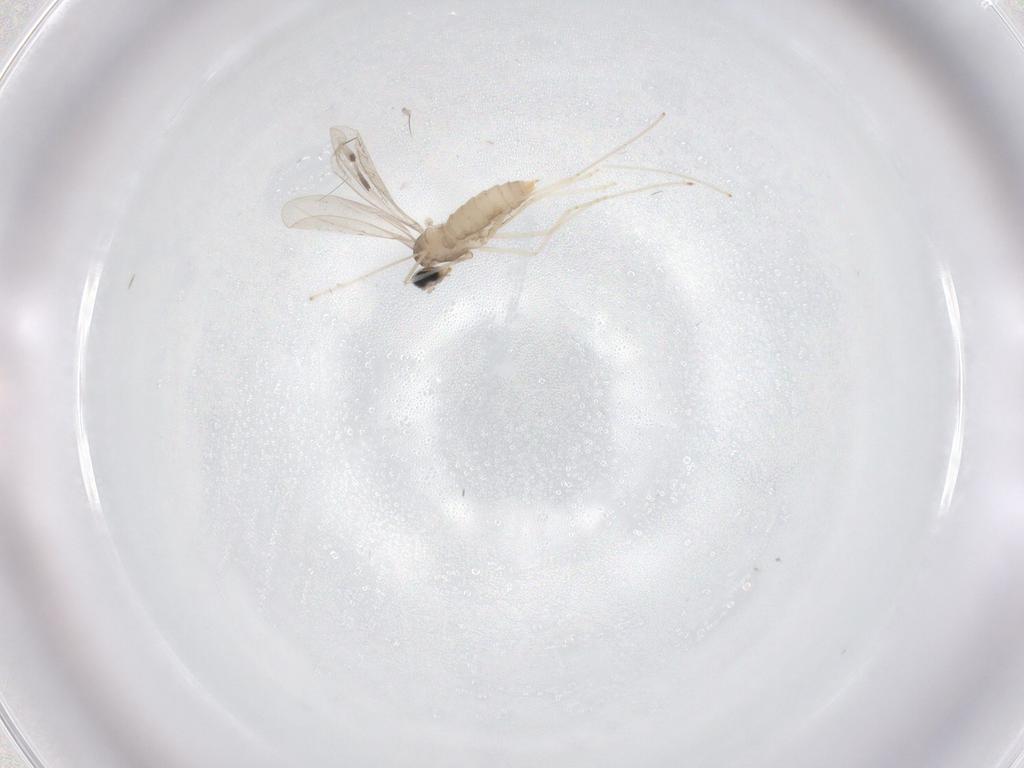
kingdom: Animalia
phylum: Arthropoda
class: Insecta
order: Diptera
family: Cecidomyiidae
